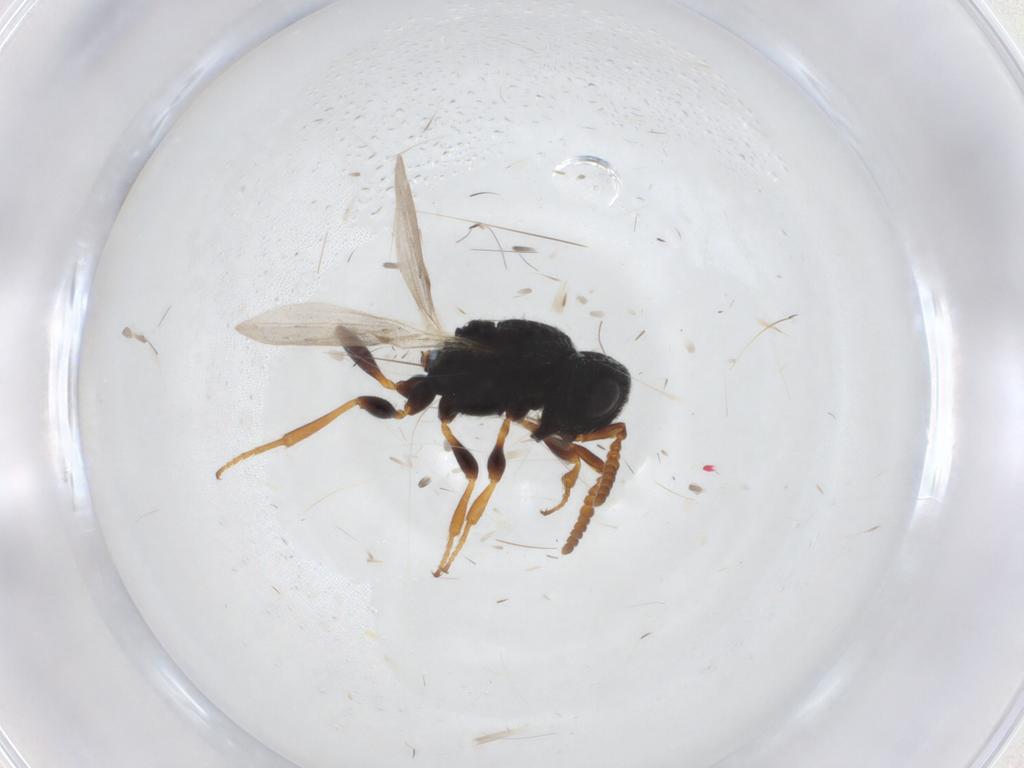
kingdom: Animalia
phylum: Arthropoda
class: Insecta
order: Hymenoptera
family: Scelionidae
